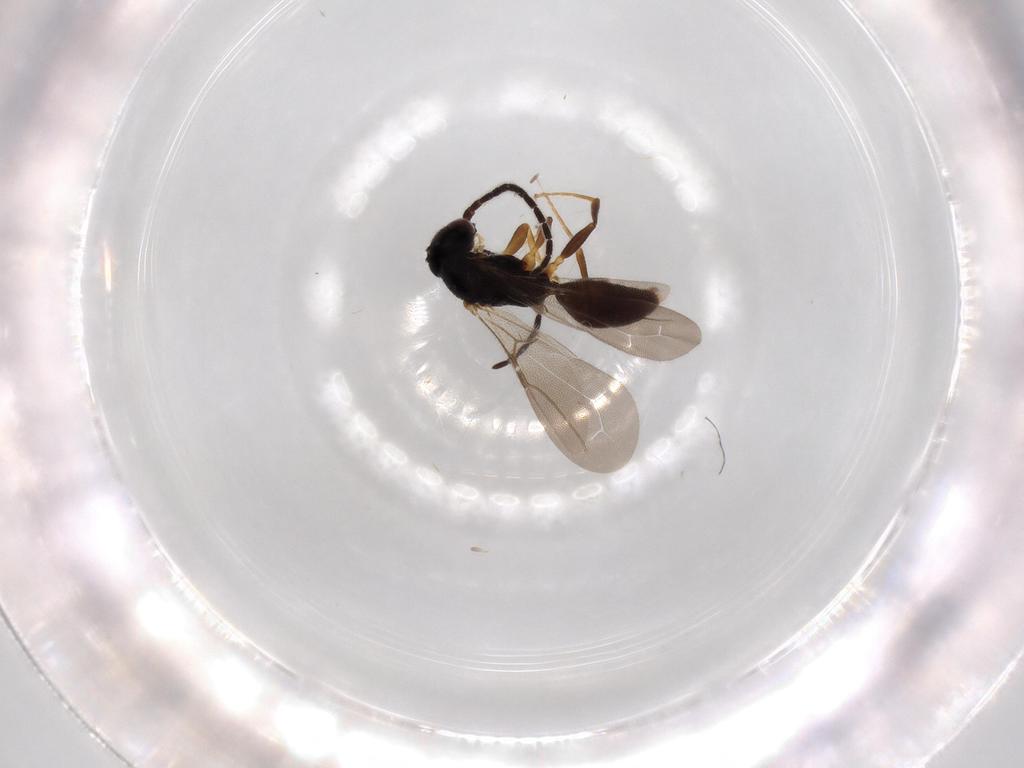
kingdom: Animalia
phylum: Arthropoda
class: Insecta
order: Hymenoptera
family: Bethylidae
